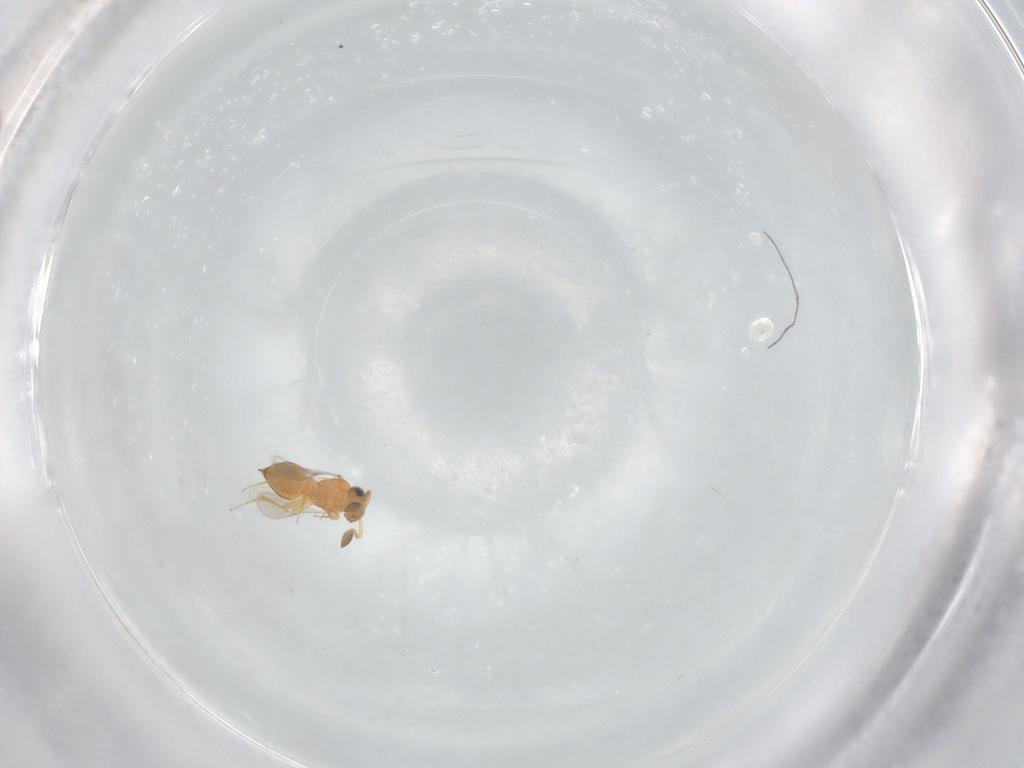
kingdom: Animalia
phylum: Arthropoda
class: Insecta
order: Hymenoptera
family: Scelionidae
